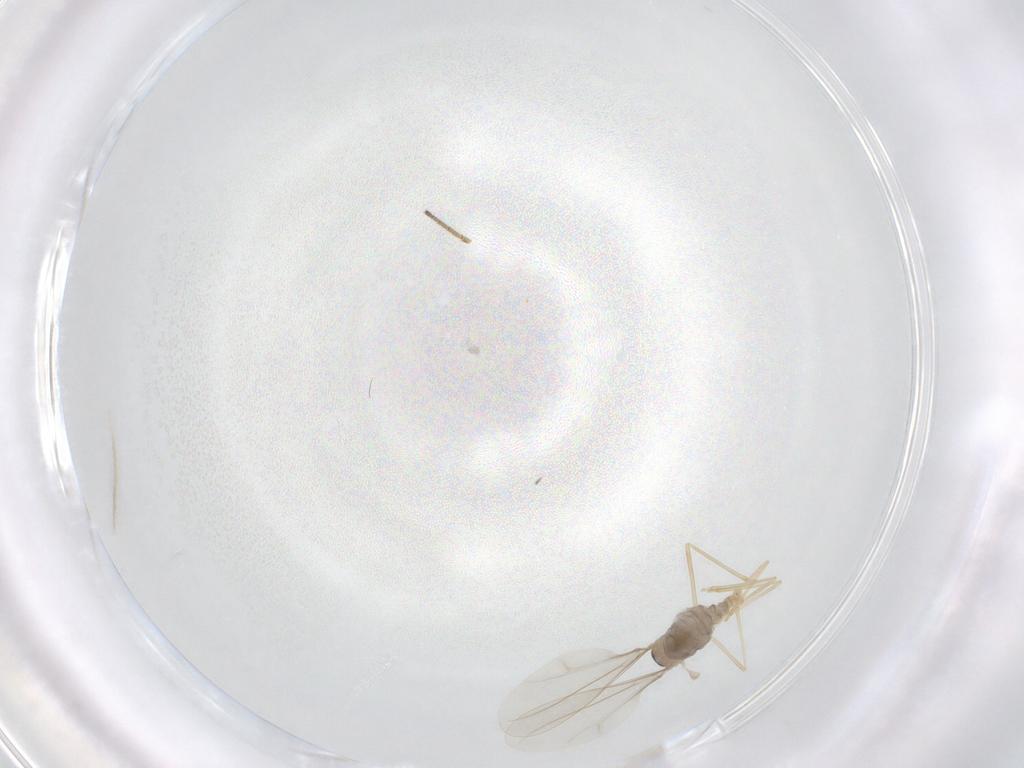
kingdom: Animalia
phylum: Arthropoda
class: Insecta
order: Diptera
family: Dolichopodidae
